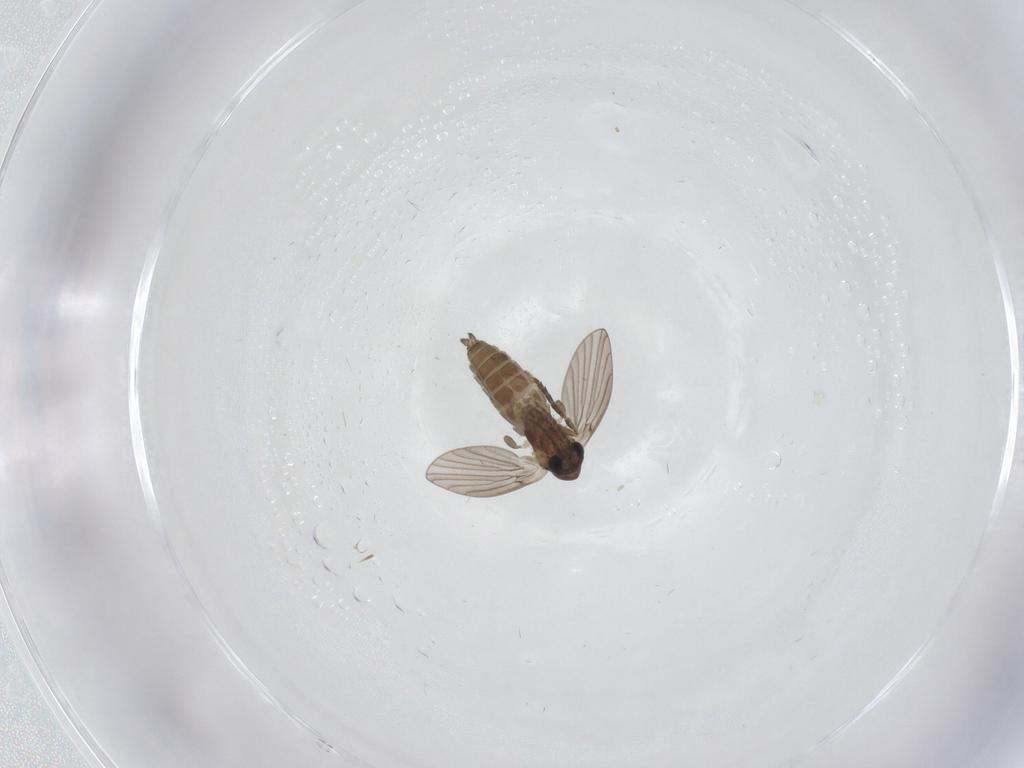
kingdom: Animalia
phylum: Arthropoda
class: Insecta
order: Diptera
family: Psychodidae
